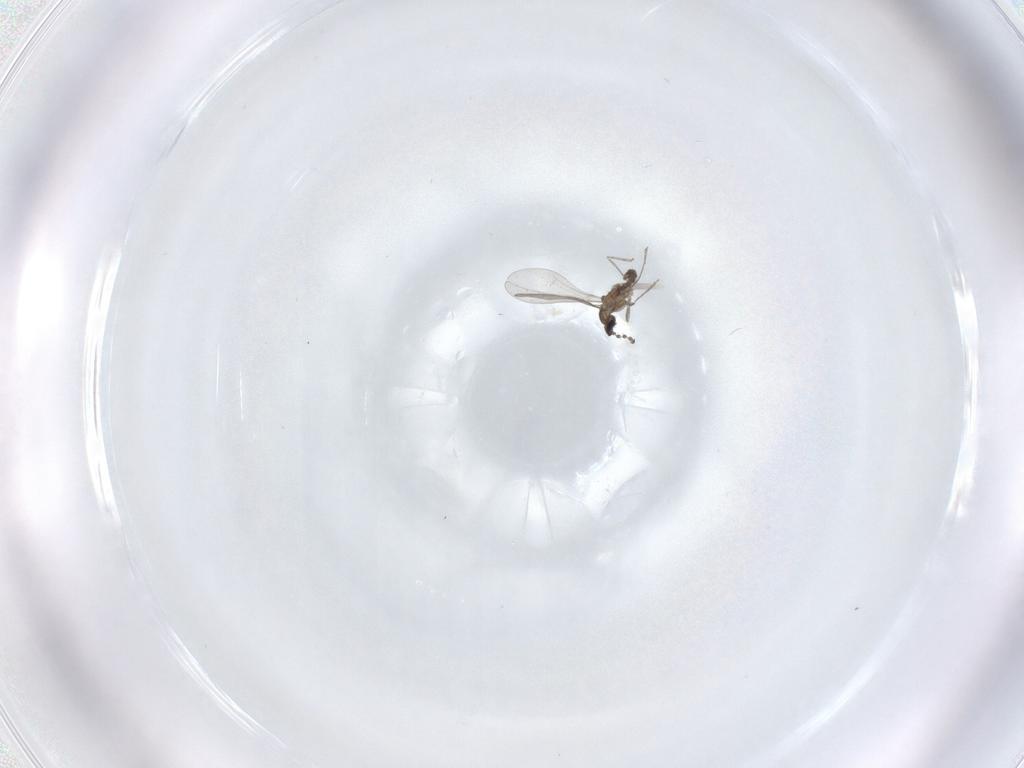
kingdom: Animalia
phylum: Arthropoda
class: Insecta
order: Diptera
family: Cecidomyiidae
